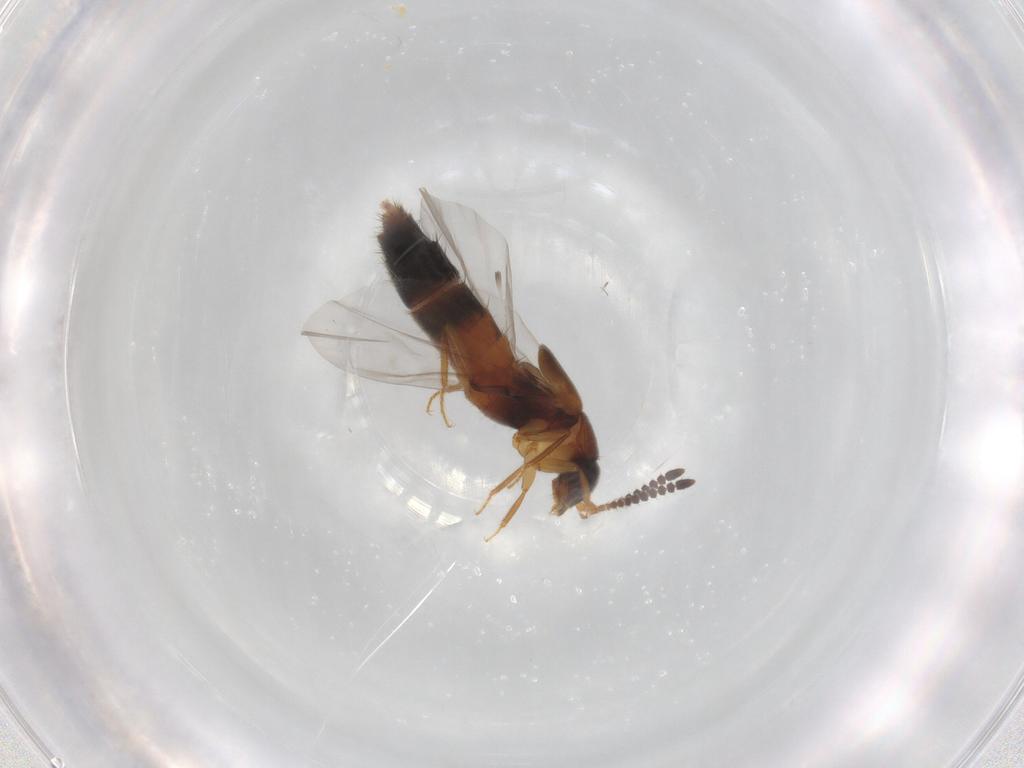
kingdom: Animalia
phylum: Arthropoda
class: Insecta
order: Coleoptera
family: Staphylinidae
